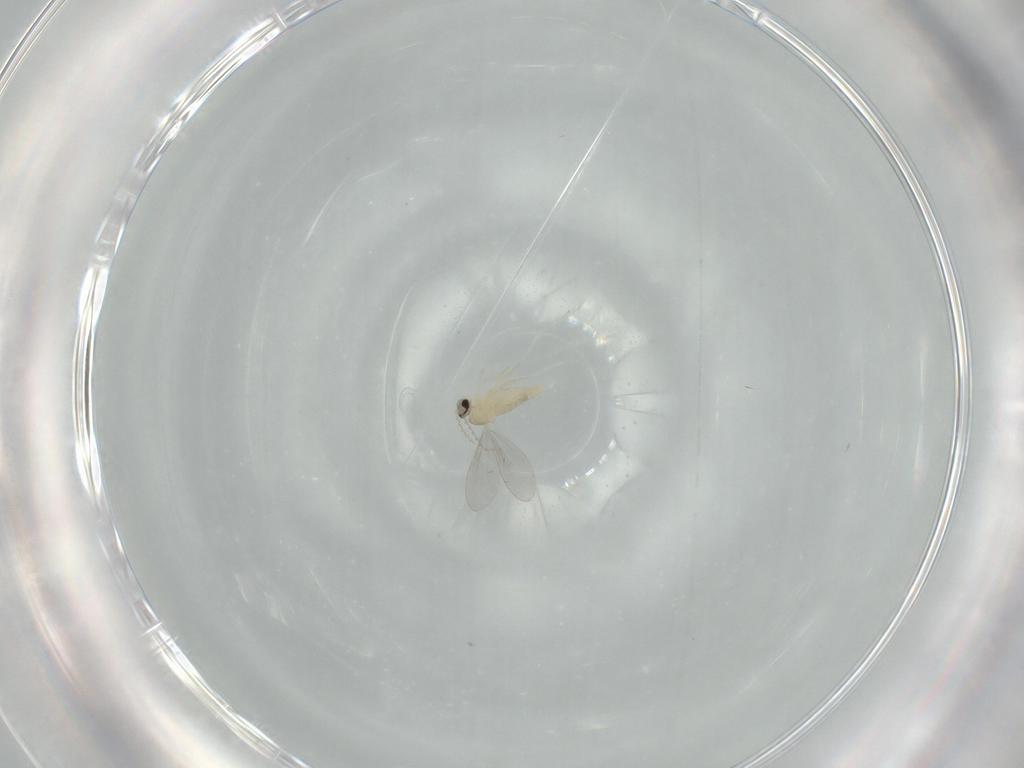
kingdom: Animalia
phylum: Arthropoda
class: Insecta
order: Diptera
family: Cecidomyiidae
